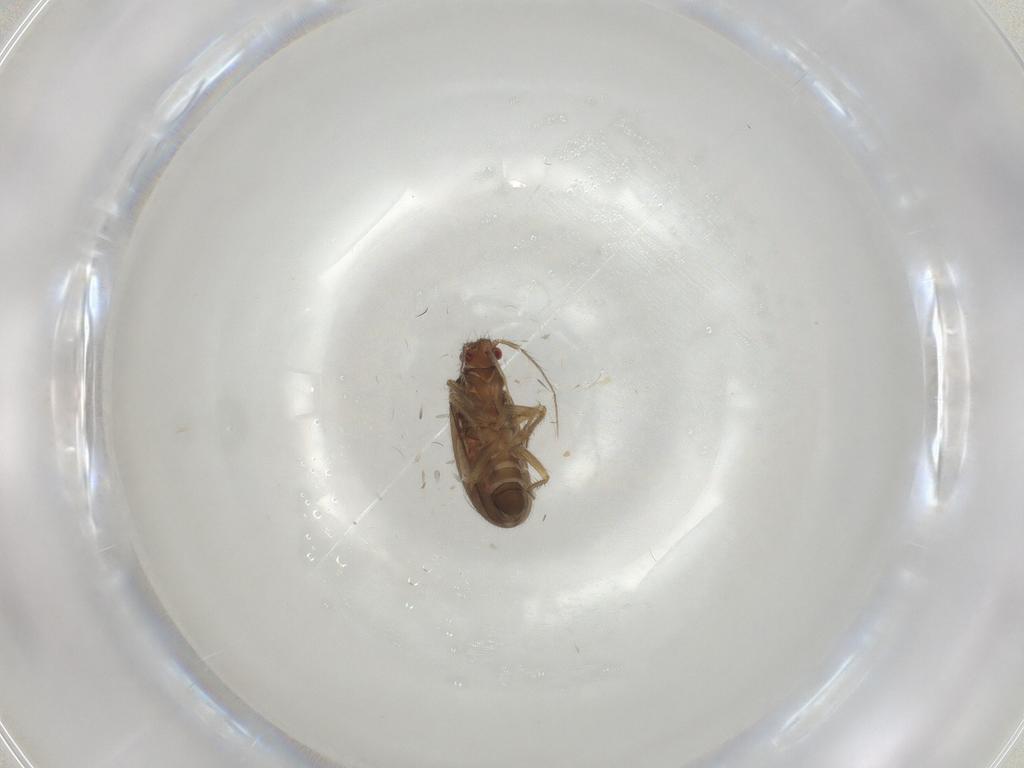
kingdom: Animalia
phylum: Arthropoda
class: Insecta
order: Hemiptera
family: Ceratocombidae
